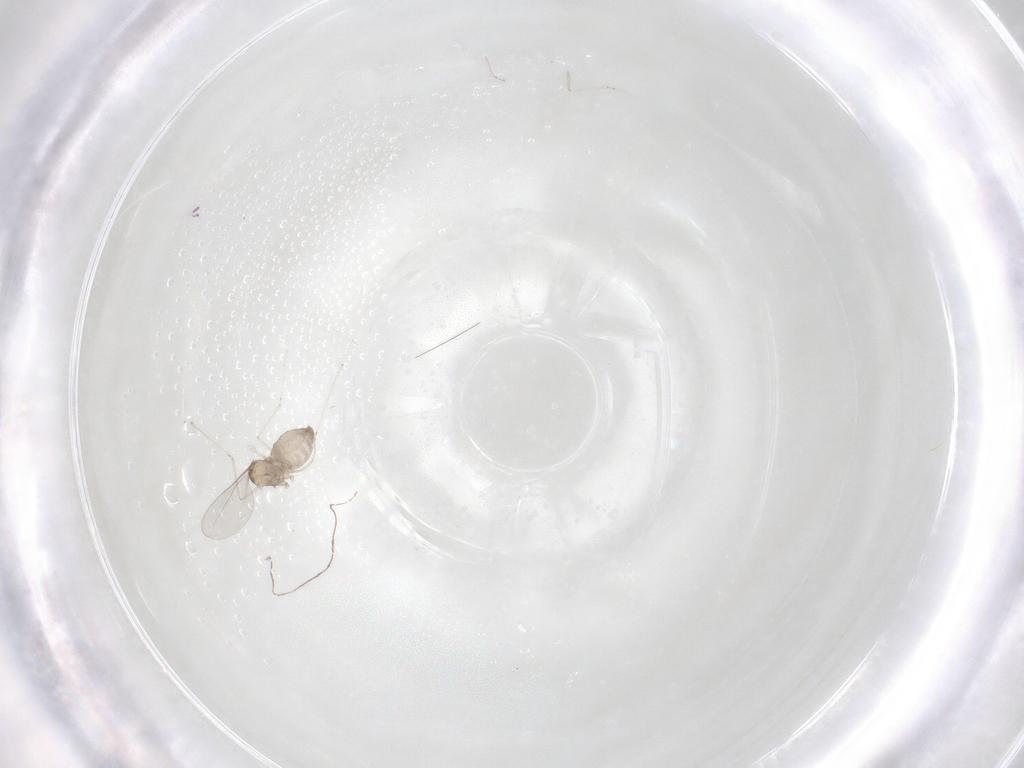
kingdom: Animalia
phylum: Arthropoda
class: Insecta
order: Diptera
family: Cecidomyiidae
